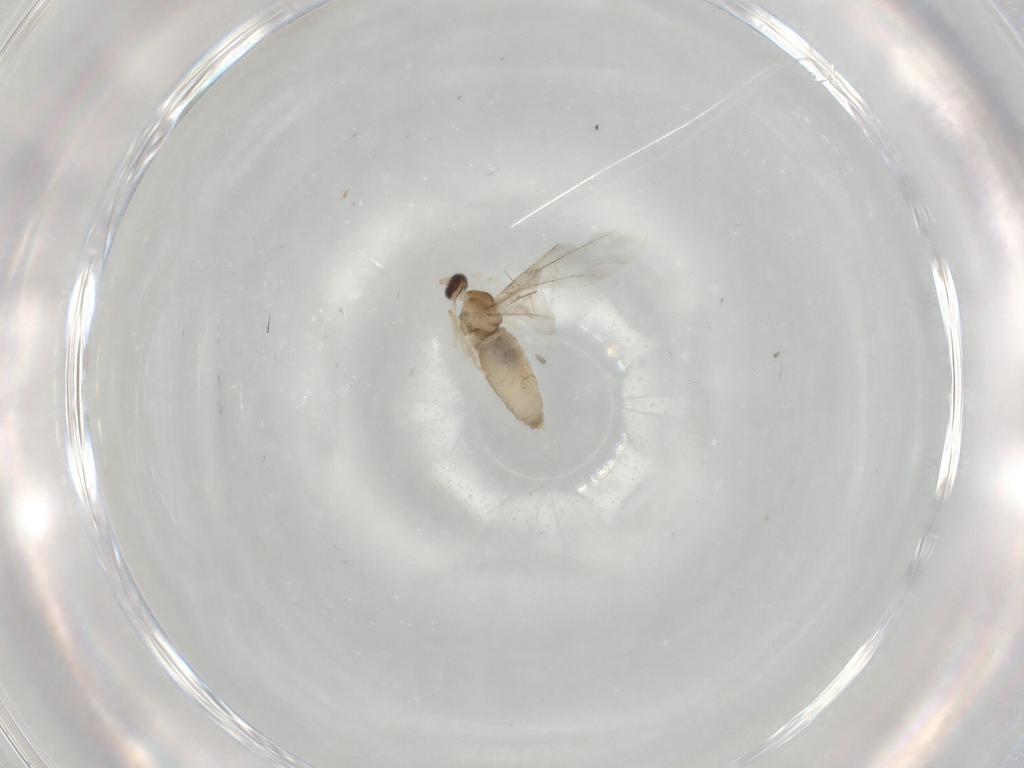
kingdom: Animalia
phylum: Arthropoda
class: Insecta
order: Diptera
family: Cecidomyiidae
